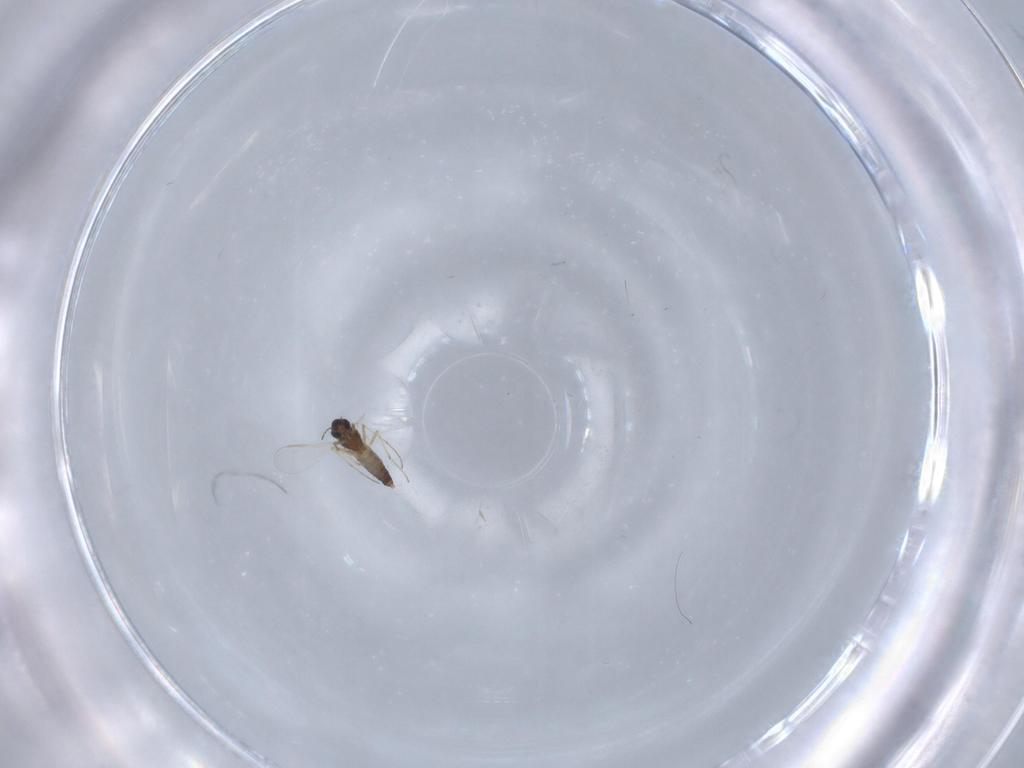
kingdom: Animalia
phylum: Arthropoda
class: Insecta
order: Diptera
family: Chironomidae
